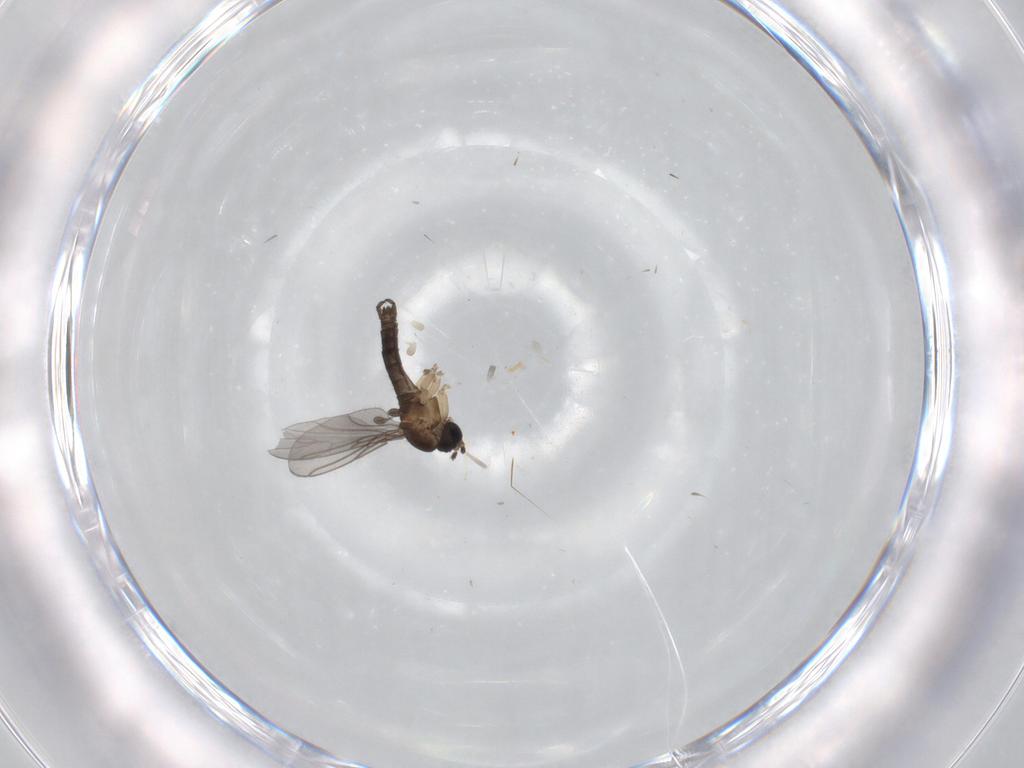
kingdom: Animalia
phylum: Arthropoda
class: Insecta
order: Diptera
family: Sciaridae
